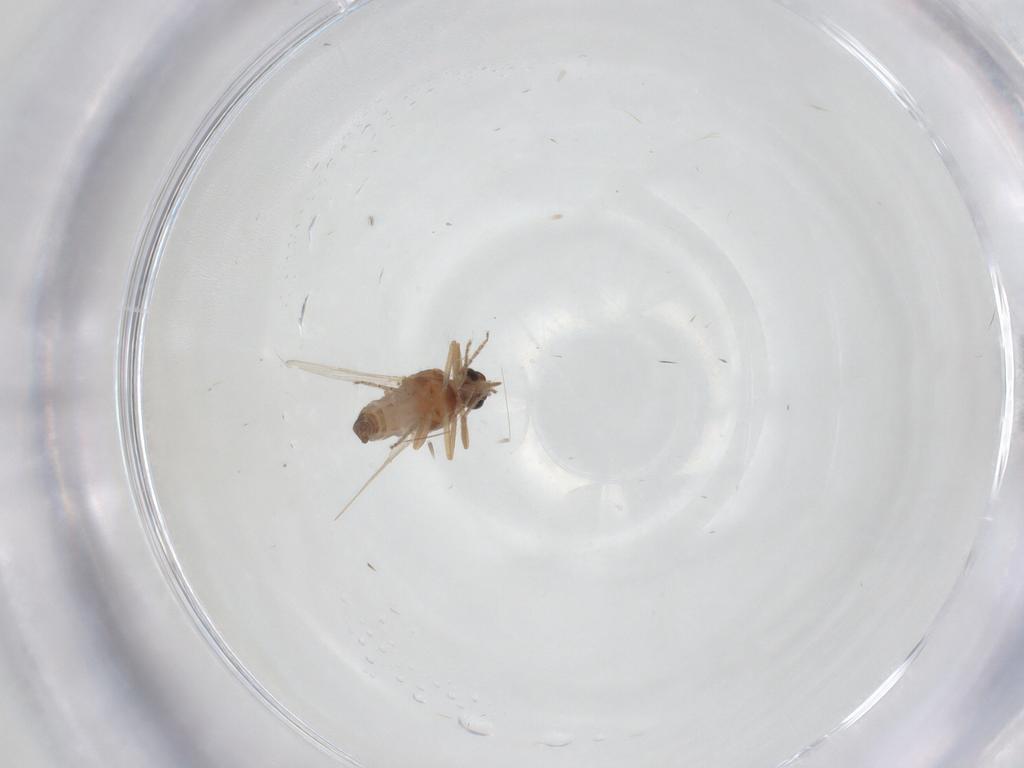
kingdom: Animalia
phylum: Arthropoda
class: Insecta
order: Diptera
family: Ceratopogonidae
